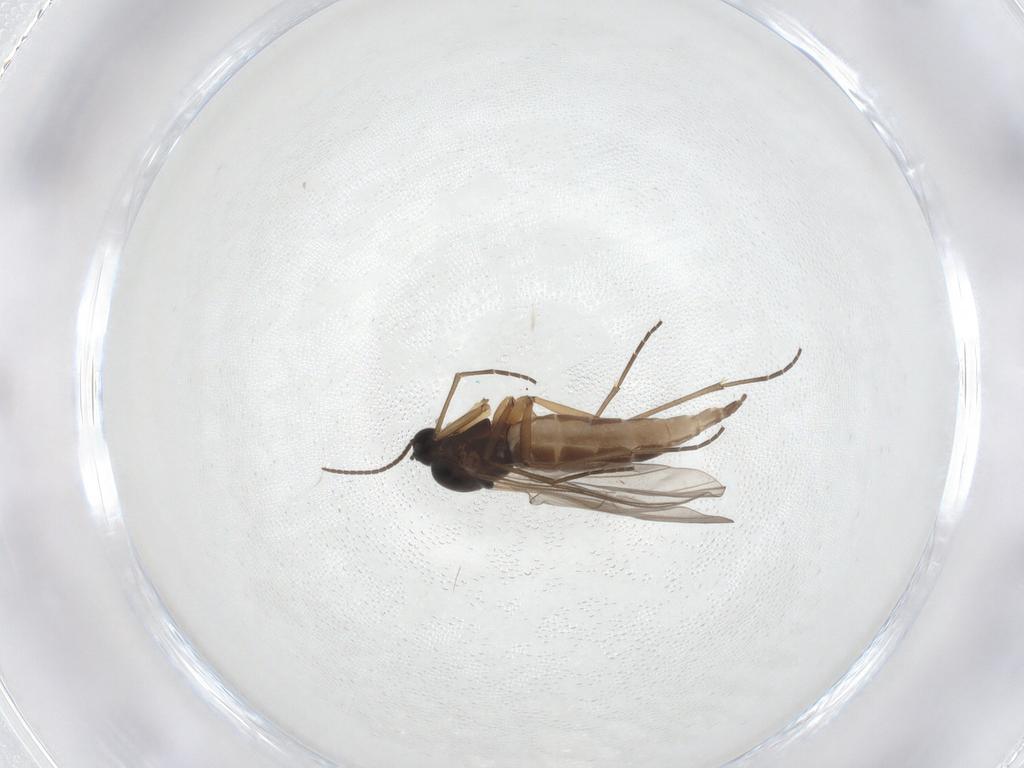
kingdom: Animalia
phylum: Arthropoda
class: Insecta
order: Diptera
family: Sciaridae
